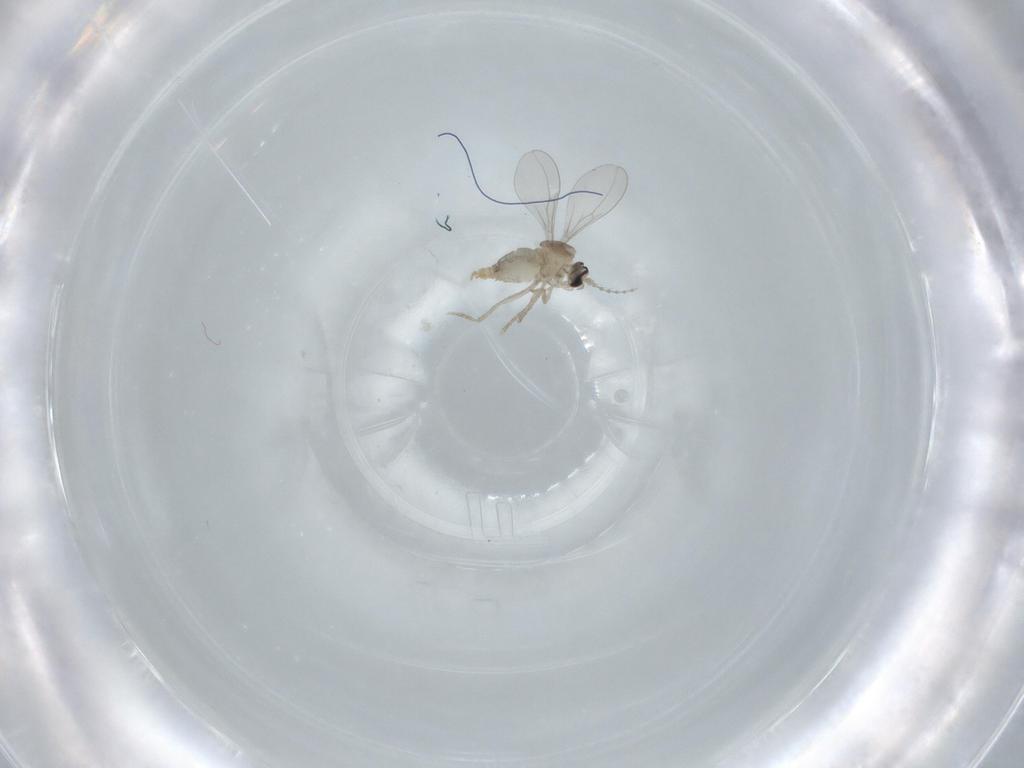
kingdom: Animalia
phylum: Arthropoda
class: Insecta
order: Diptera
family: Cecidomyiidae
